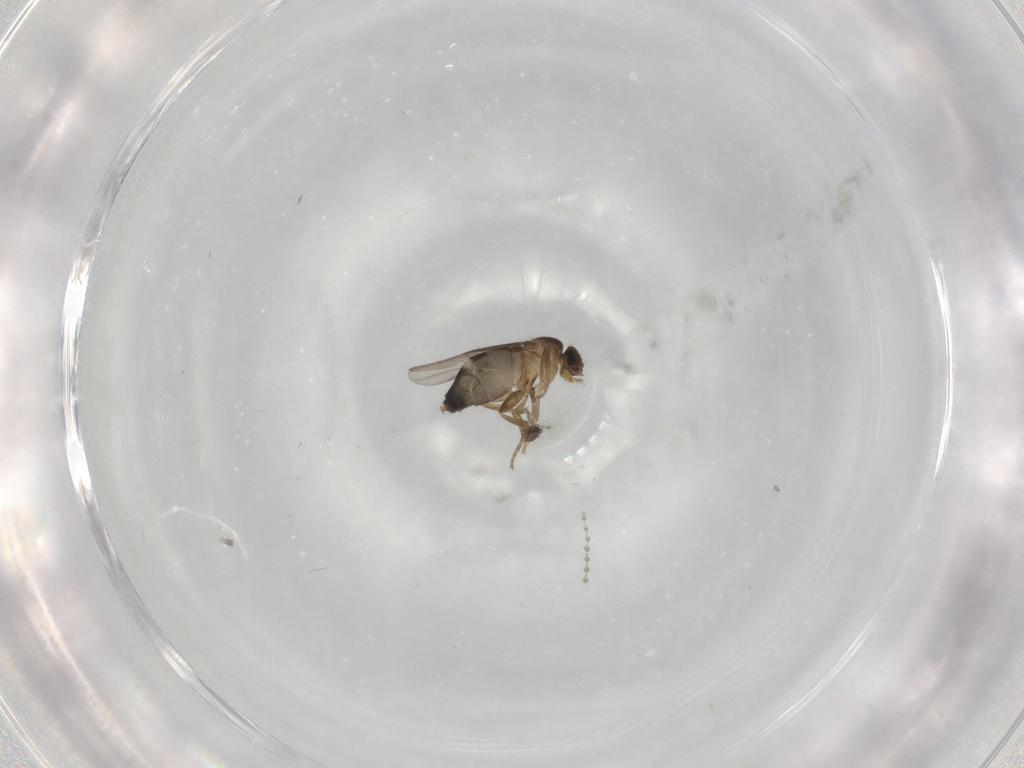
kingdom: Animalia
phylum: Arthropoda
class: Insecta
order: Diptera
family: Phoridae
